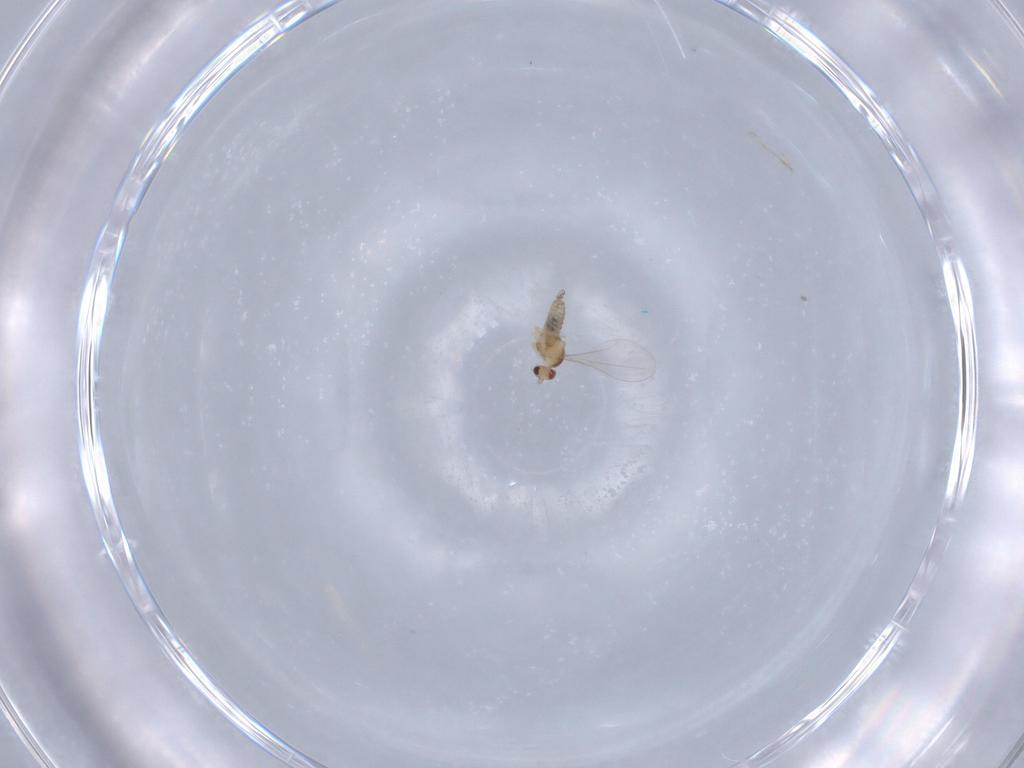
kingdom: Animalia
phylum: Arthropoda
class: Insecta
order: Diptera
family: Cecidomyiidae
